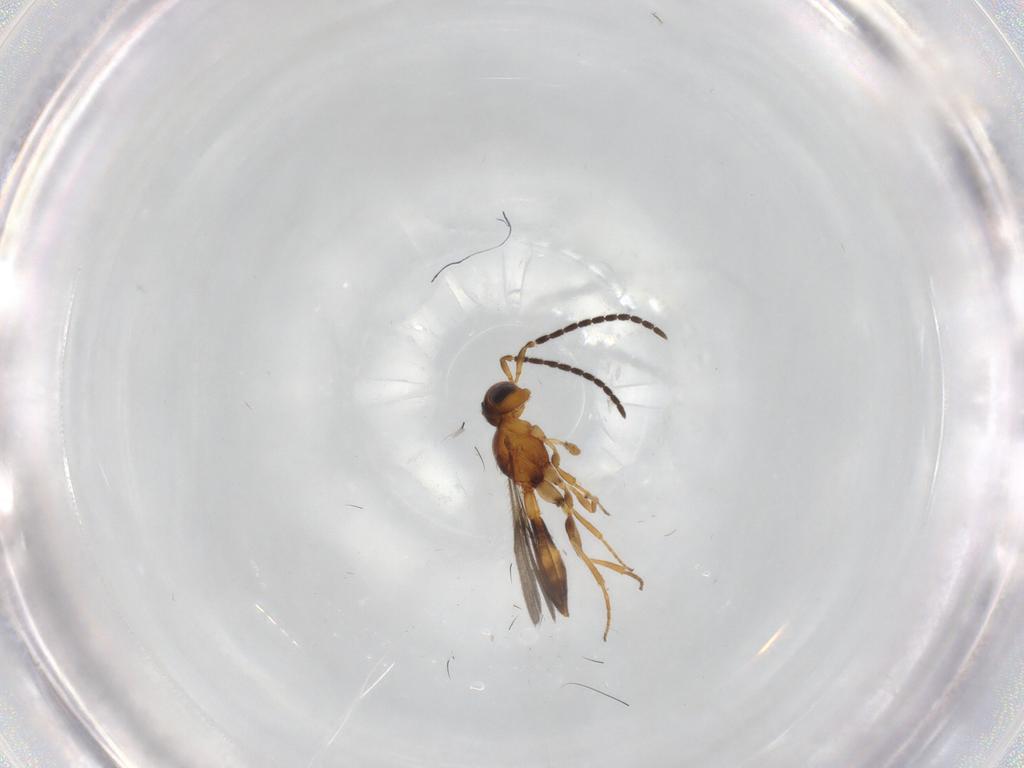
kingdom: Animalia
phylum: Arthropoda
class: Insecta
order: Hymenoptera
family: Scelionidae
